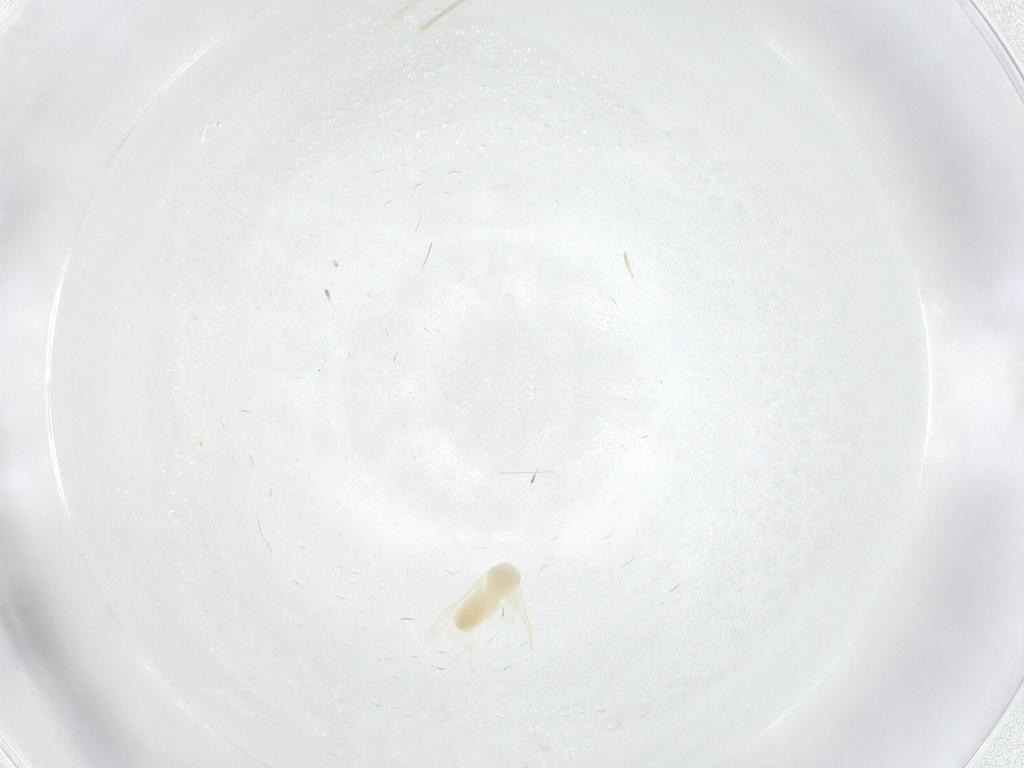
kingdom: Animalia
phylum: Arthropoda
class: Insecta
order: Hemiptera
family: Aleyrodidae
